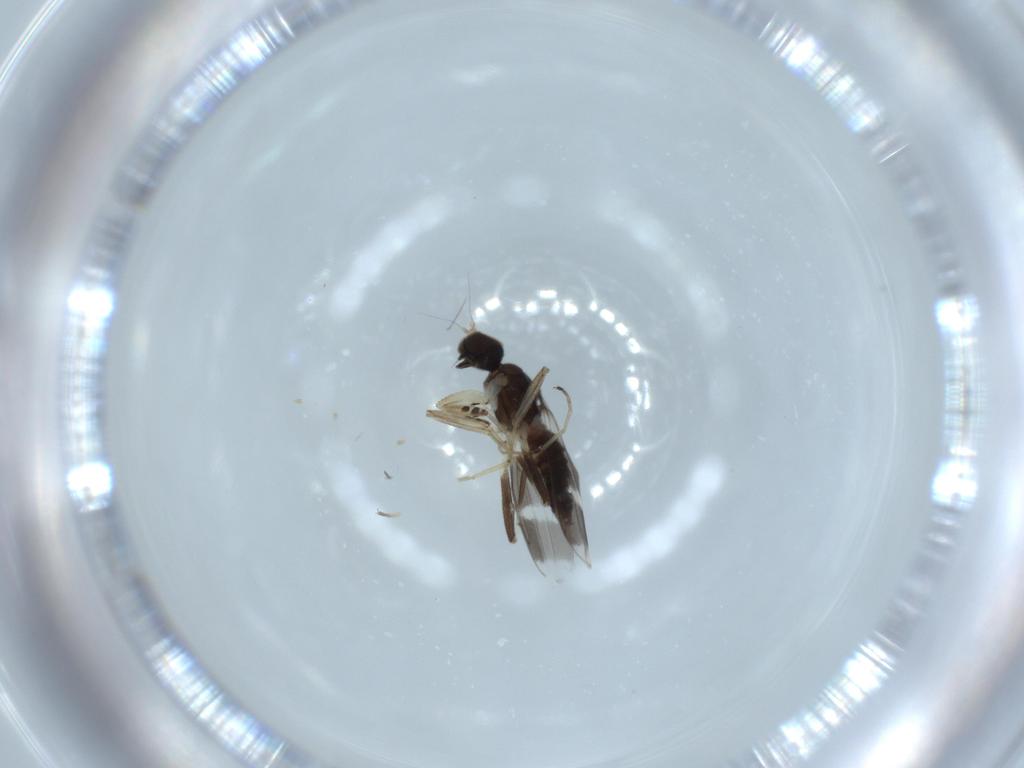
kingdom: Animalia
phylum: Arthropoda
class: Insecta
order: Diptera
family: Hybotidae
